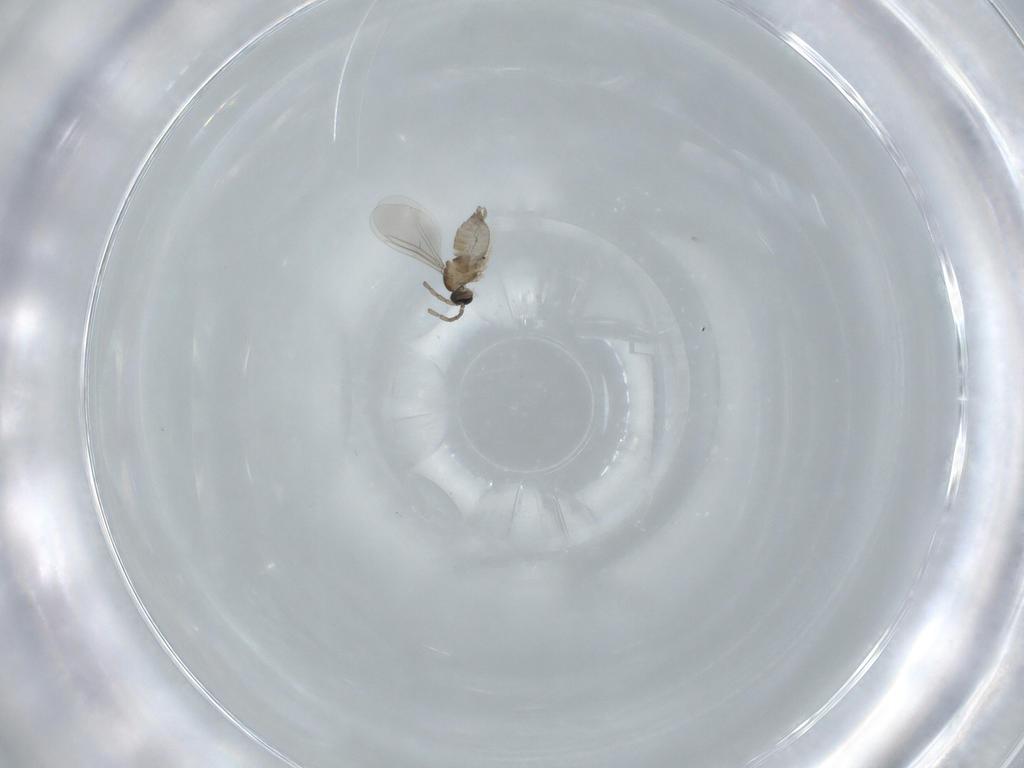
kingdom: Animalia
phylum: Arthropoda
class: Insecta
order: Diptera
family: Cecidomyiidae
